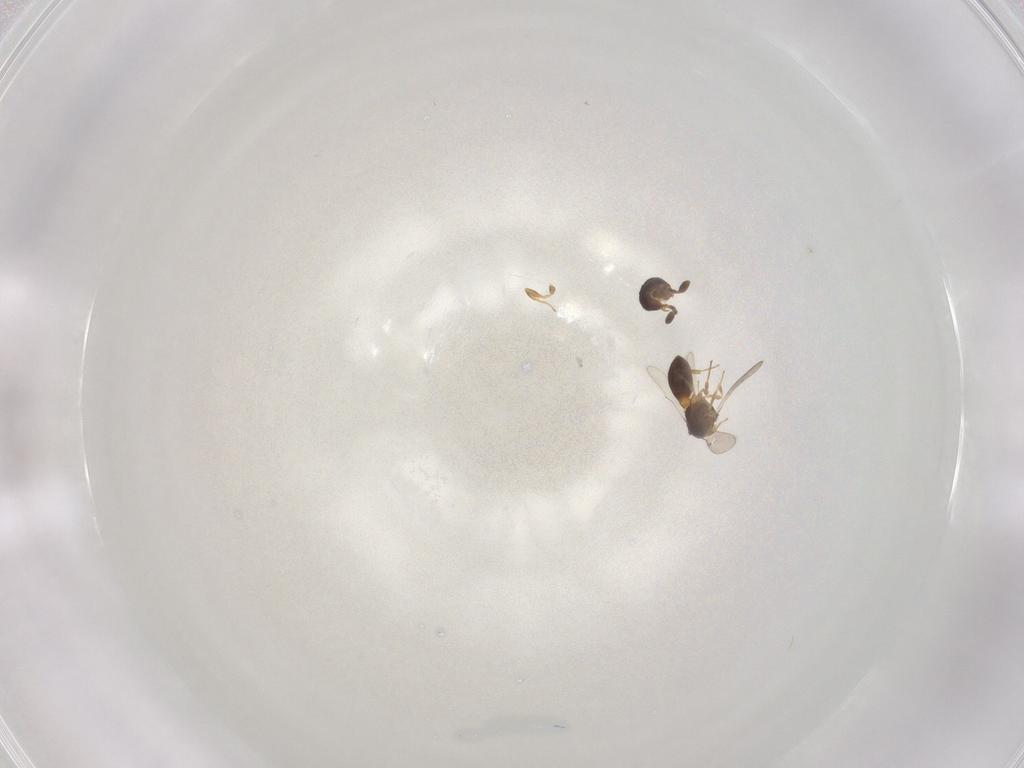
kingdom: Animalia
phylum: Arthropoda
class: Insecta
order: Hymenoptera
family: Scelionidae
